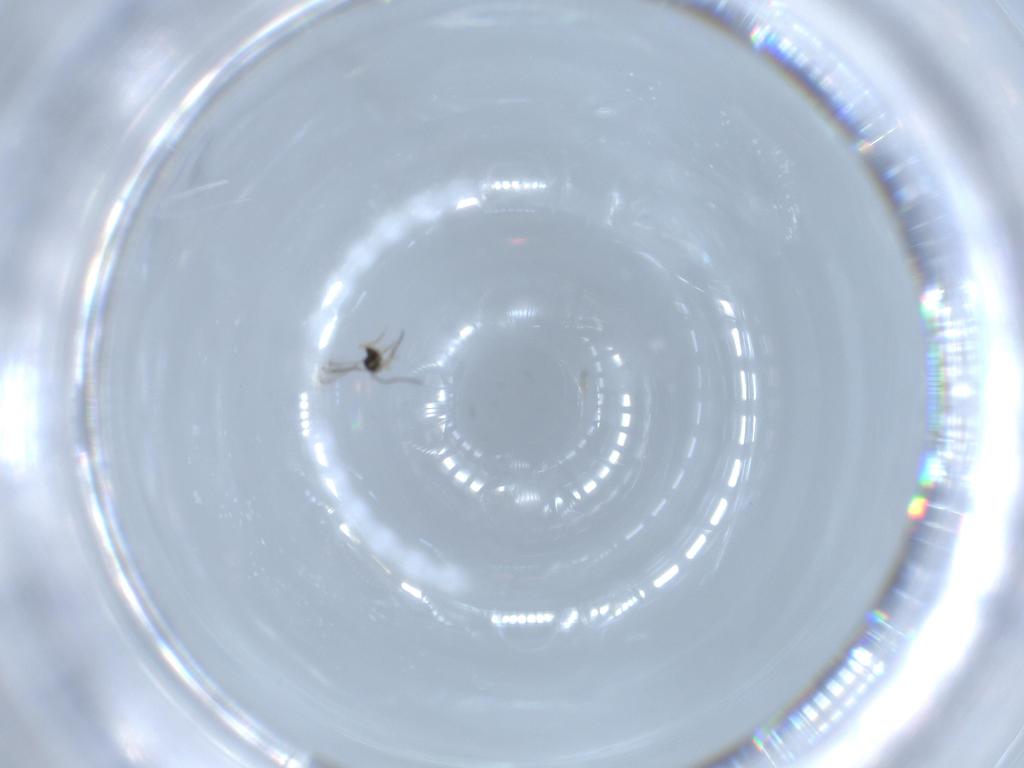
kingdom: Animalia
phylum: Arthropoda
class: Insecta
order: Hymenoptera
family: Mymaridae
